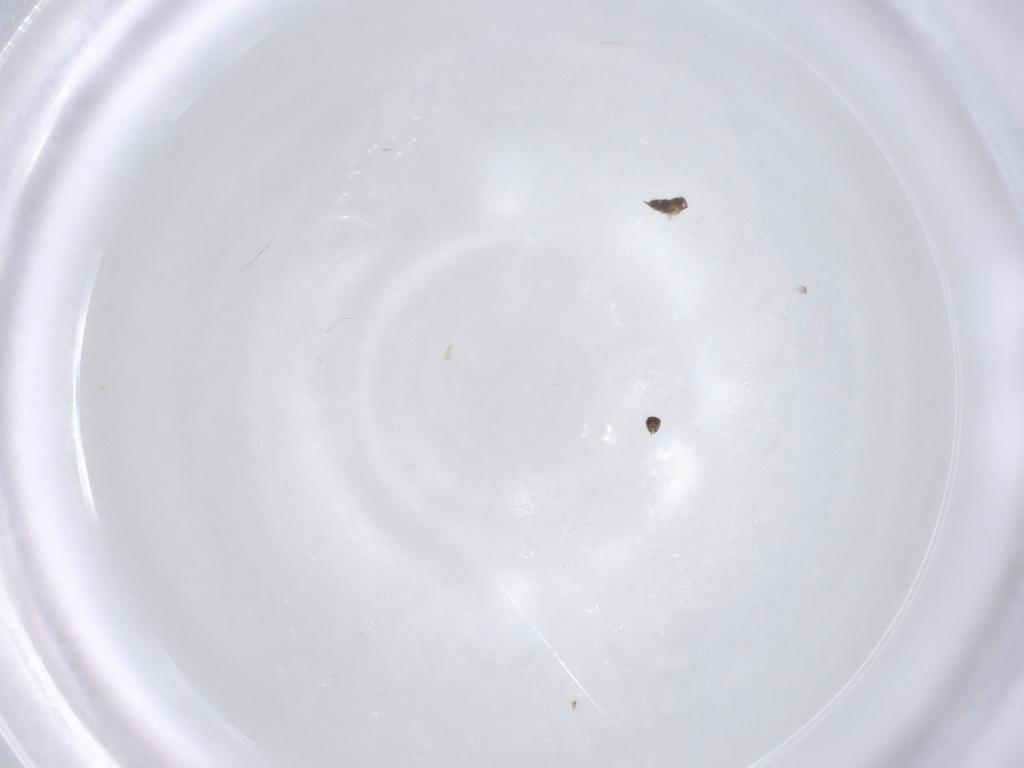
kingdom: Animalia
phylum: Arthropoda
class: Insecta
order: Hymenoptera
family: Mymaridae
